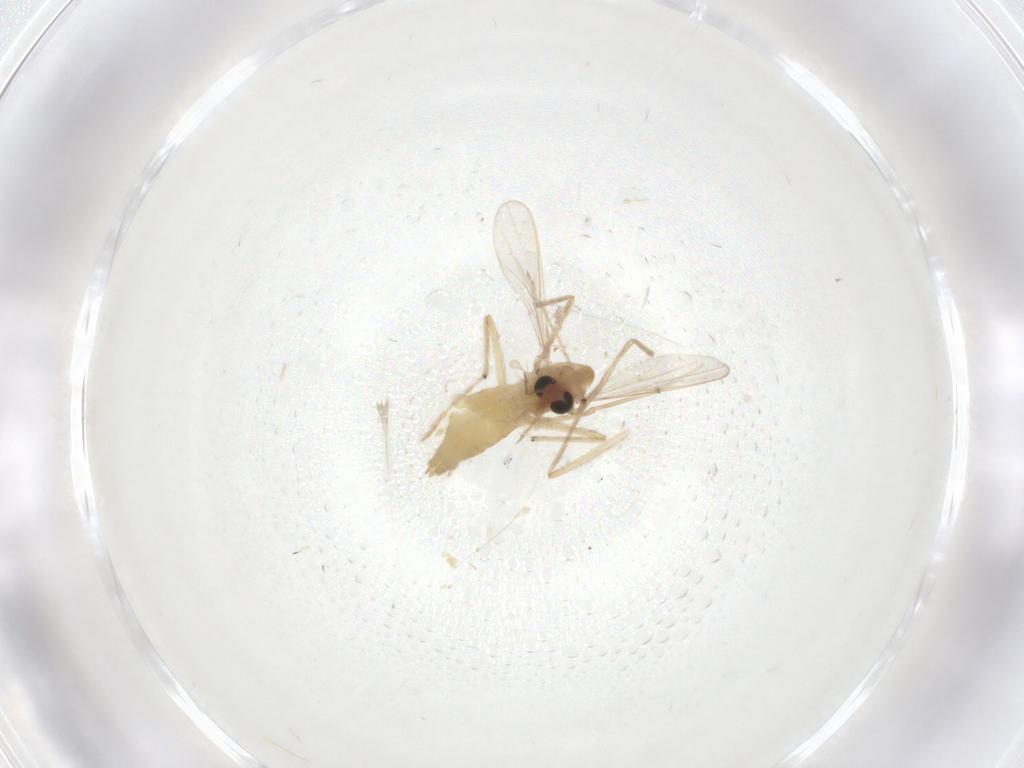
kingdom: Animalia
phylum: Arthropoda
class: Insecta
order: Diptera
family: Chironomidae
